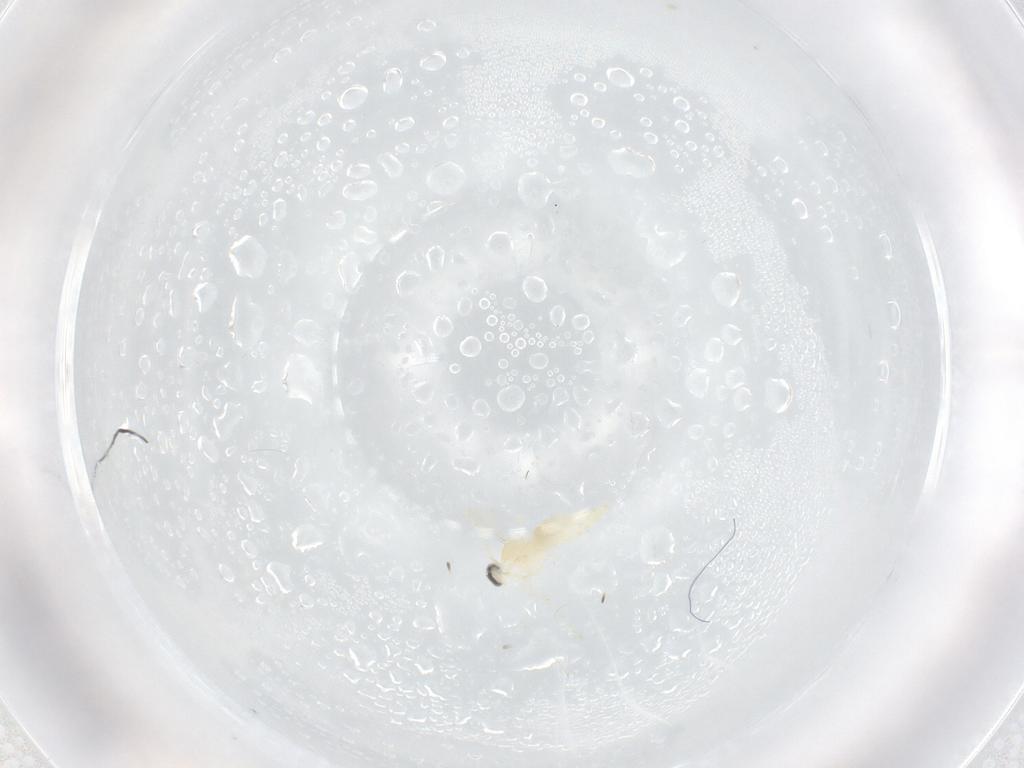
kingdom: Animalia
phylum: Arthropoda
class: Insecta
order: Diptera
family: Cecidomyiidae
